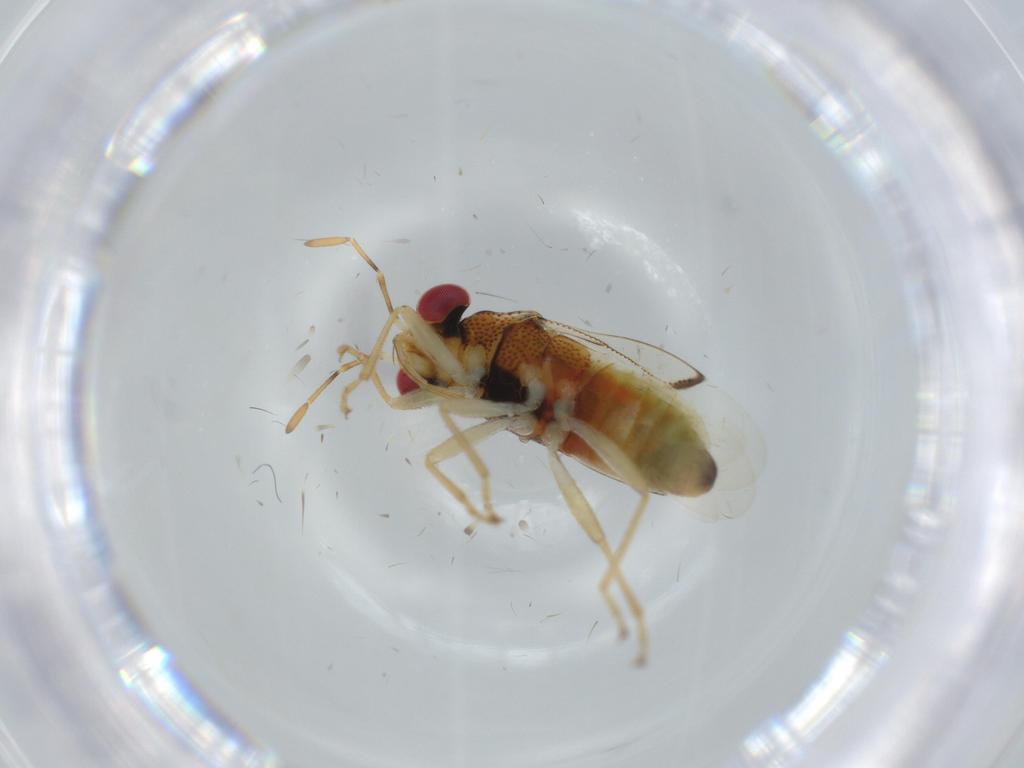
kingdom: Animalia
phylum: Arthropoda
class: Insecta
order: Hemiptera
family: Geocoridae
